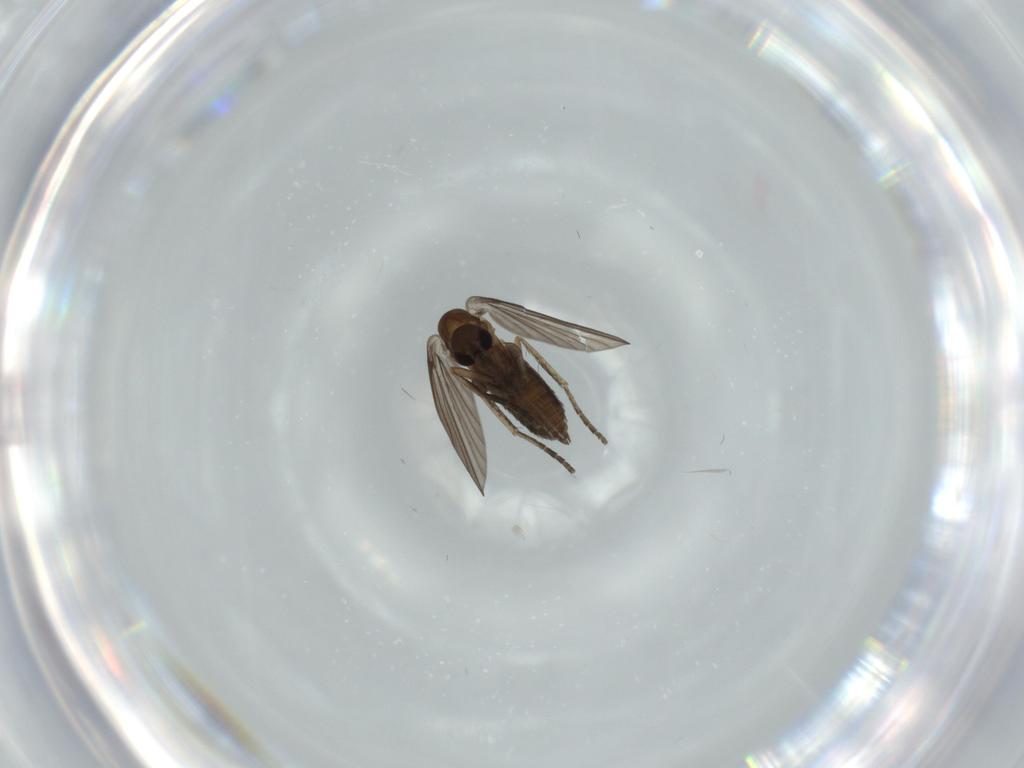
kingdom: Animalia
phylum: Arthropoda
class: Insecta
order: Diptera
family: Psychodidae
